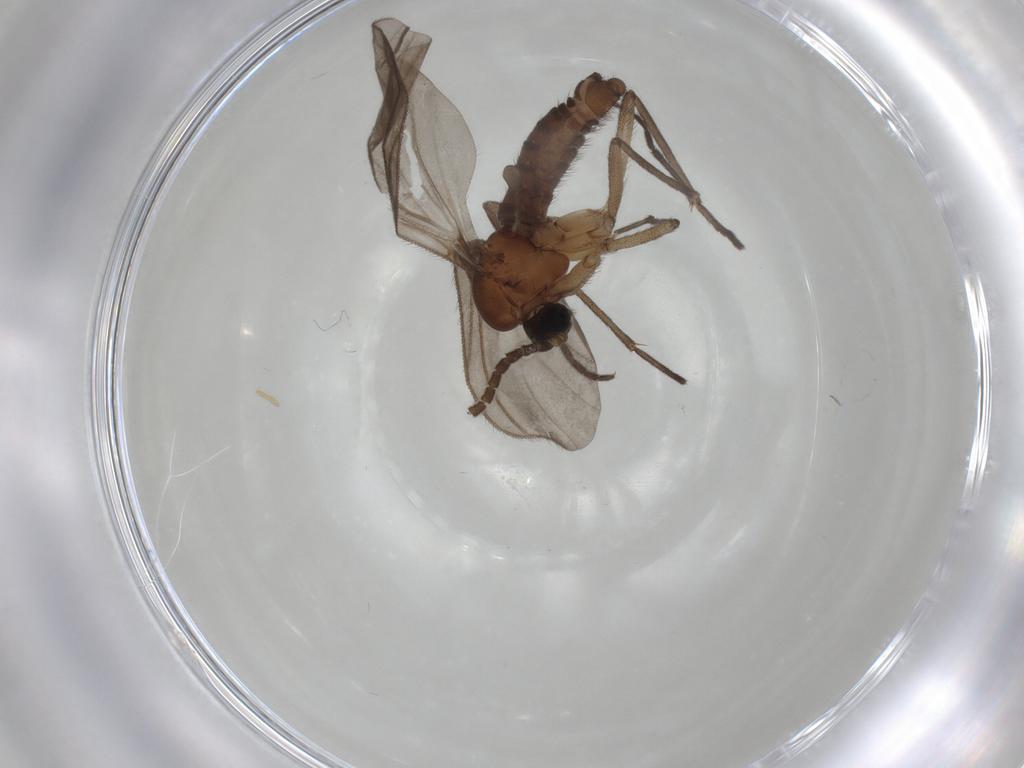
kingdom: Animalia
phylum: Arthropoda
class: Insecta
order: Diptera
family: Sciaridae
